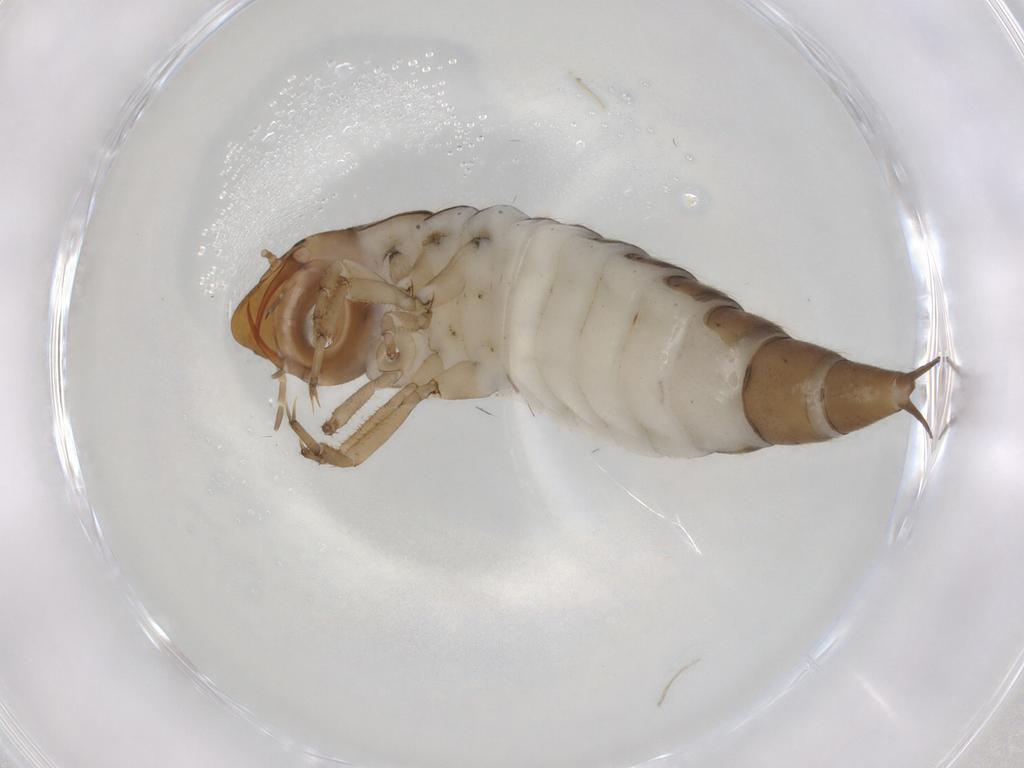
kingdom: Animalia
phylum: Arthropoda
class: Insecta
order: Coleoptera
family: Dytiscidae
